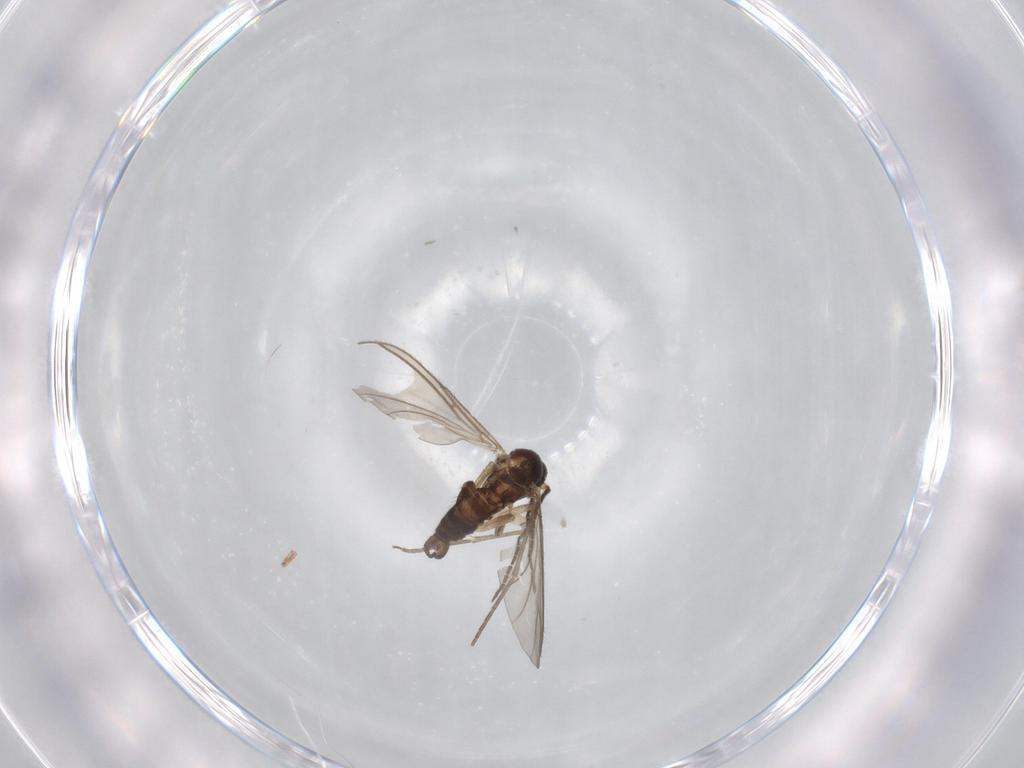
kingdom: Animalia
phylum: Arthropoda
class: Insecta
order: Diptera
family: Sciaridae
